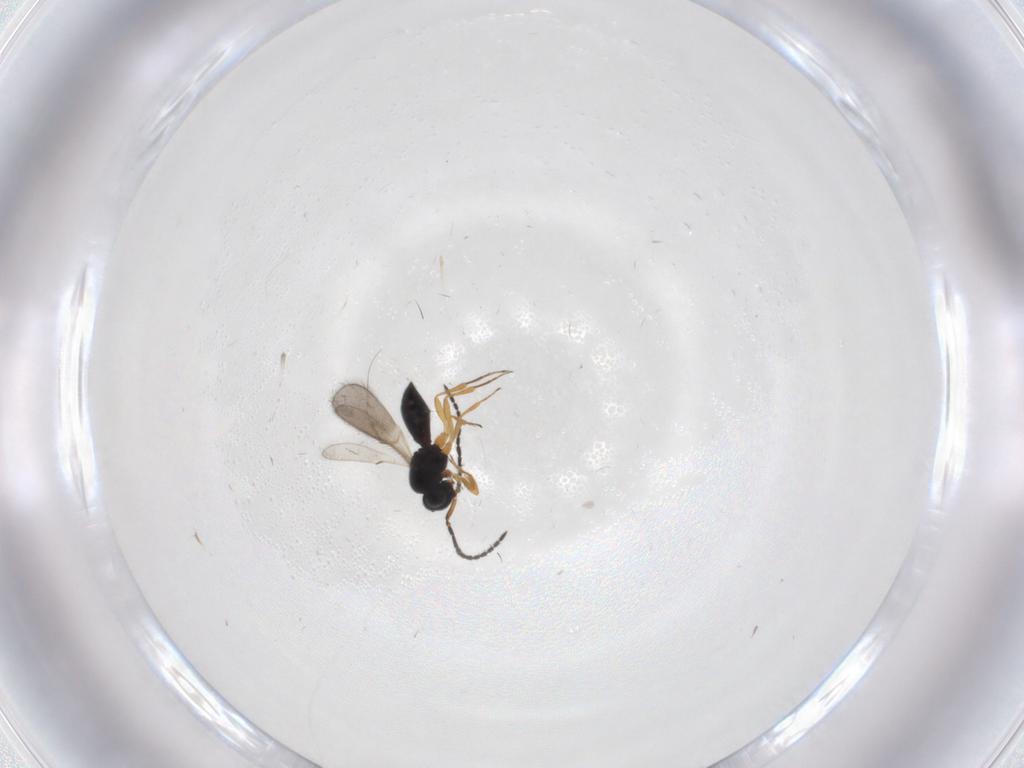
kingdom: Animalia
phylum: Arthropoda
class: Insecta
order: Hymenoptera
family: Scelionidae
